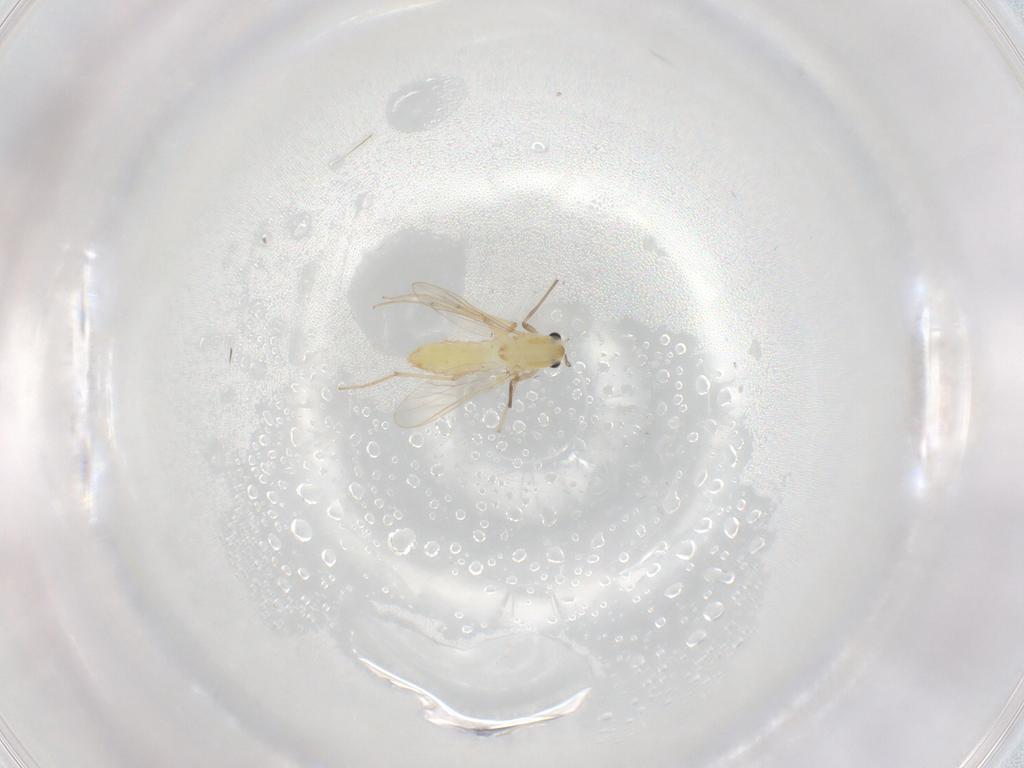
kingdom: Animalia
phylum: Arthropoda
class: Insecta
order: Diptera
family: Chironomidae
